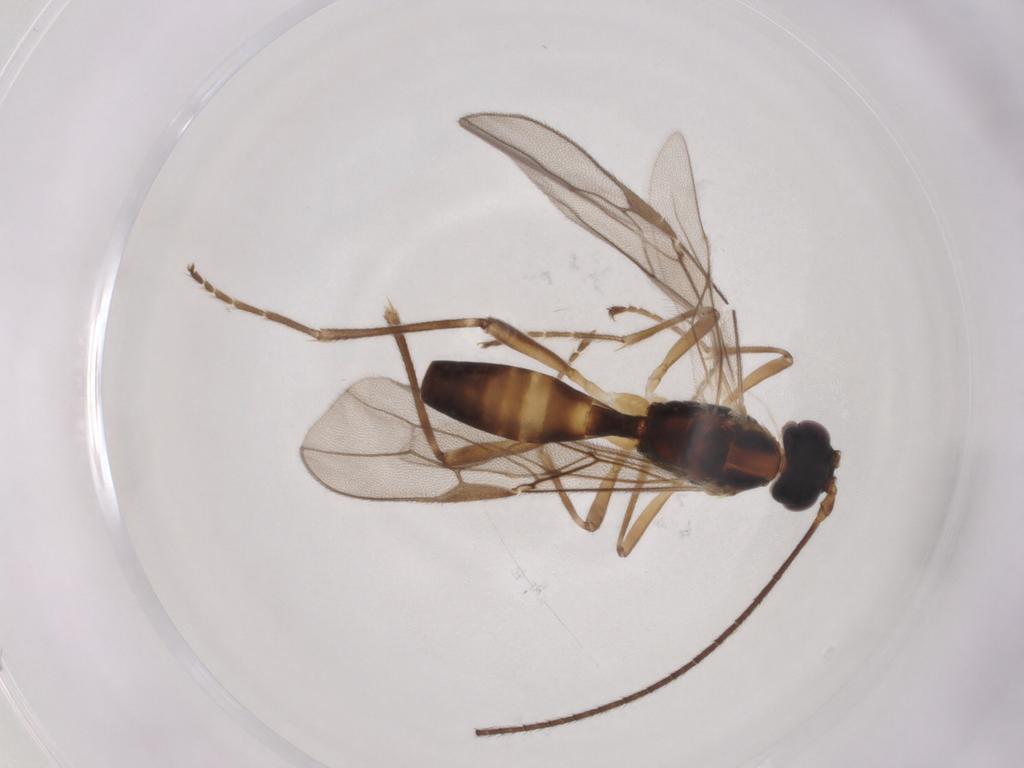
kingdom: Animalia
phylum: Arthropoda
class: Insecta
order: Hymenoptera
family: Braconidae
